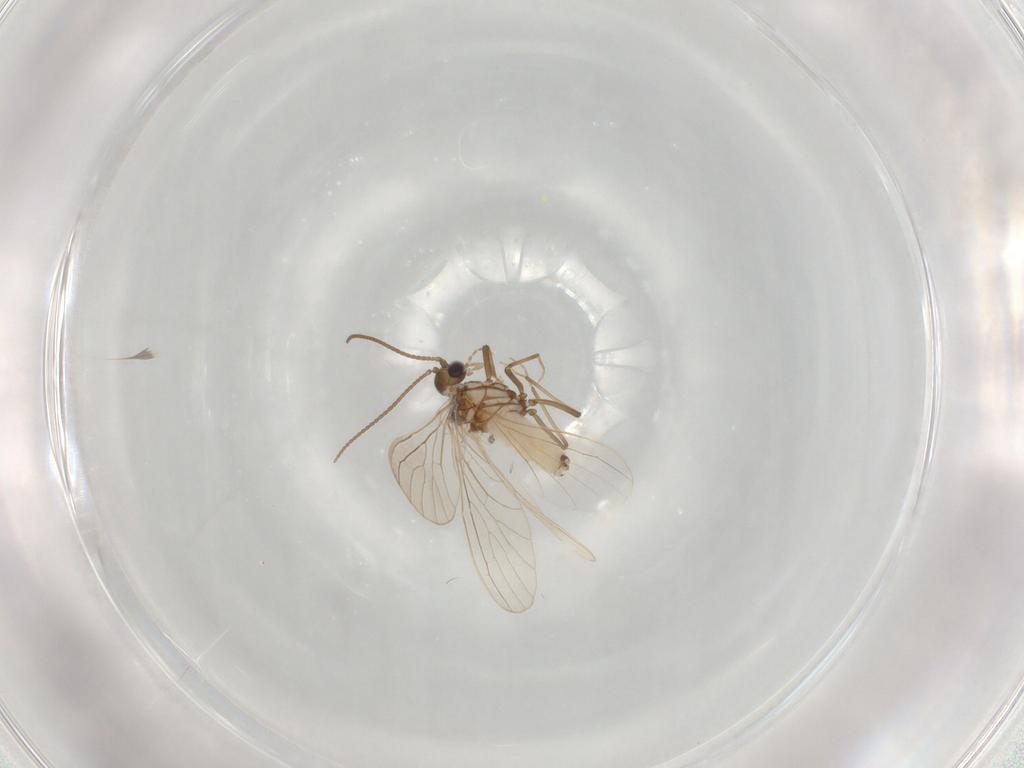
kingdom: Animalia
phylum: Arthropoda
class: Insecta
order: Neuroptera
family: Coniopterygidae
